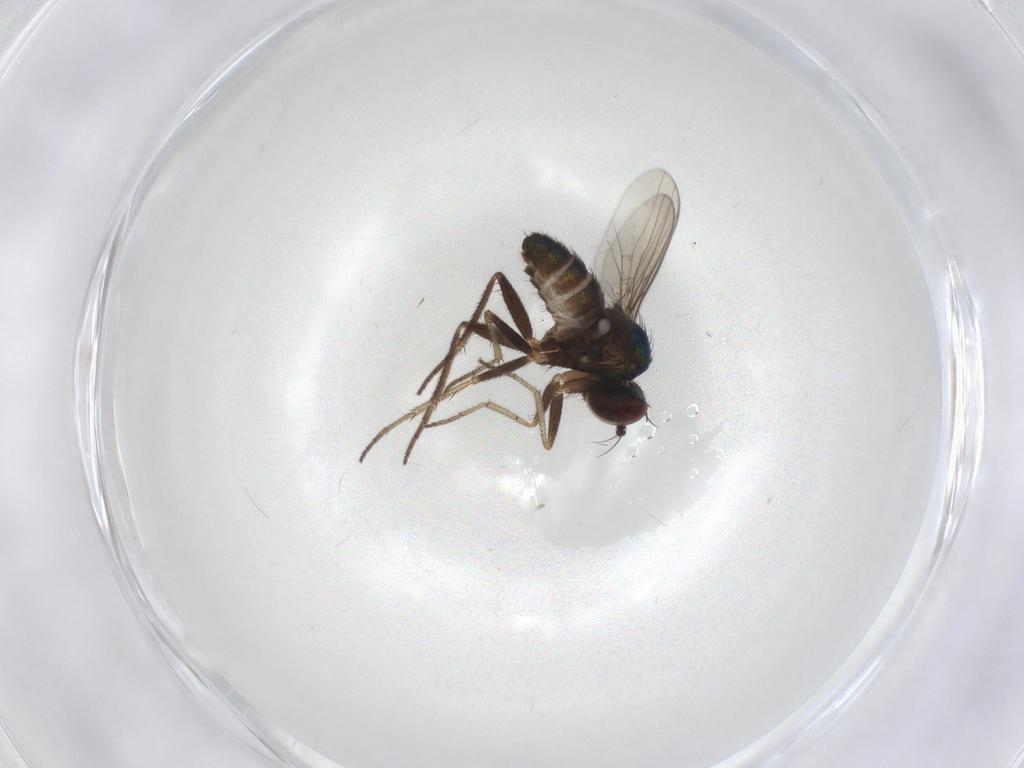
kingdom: Animalia
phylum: Arthropoda
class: Insecta
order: Diptera
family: Dolichopodidae
